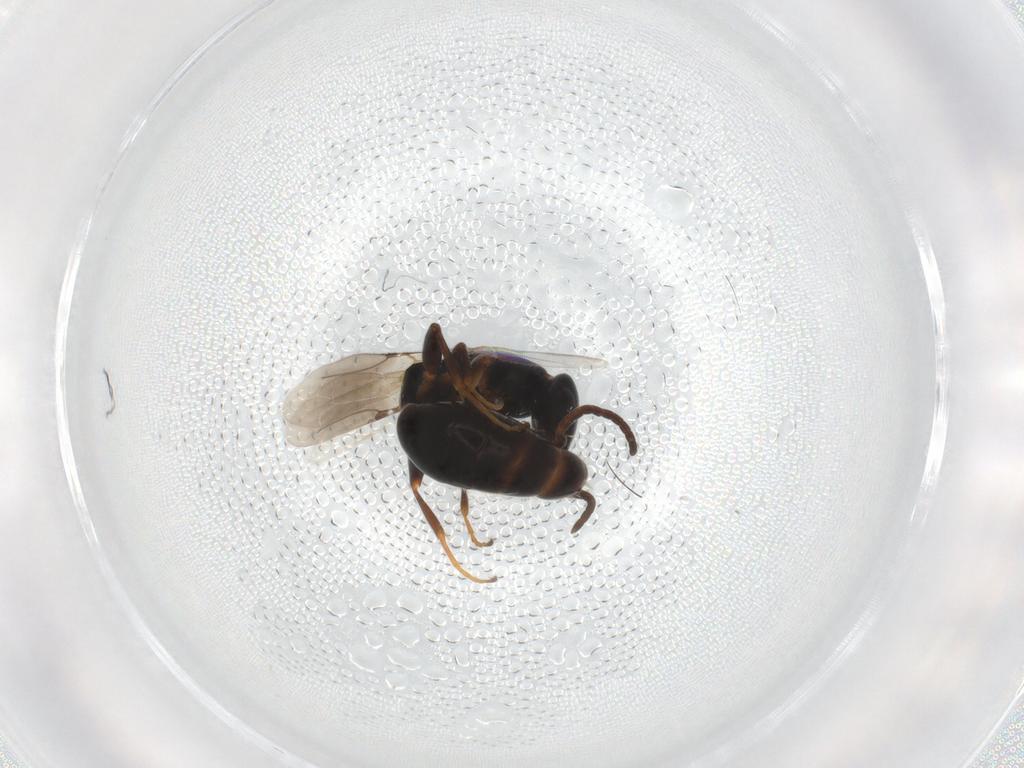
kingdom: Animalia
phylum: Arthropoda
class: Insecta
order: Hymenoptera
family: Bethylidae
